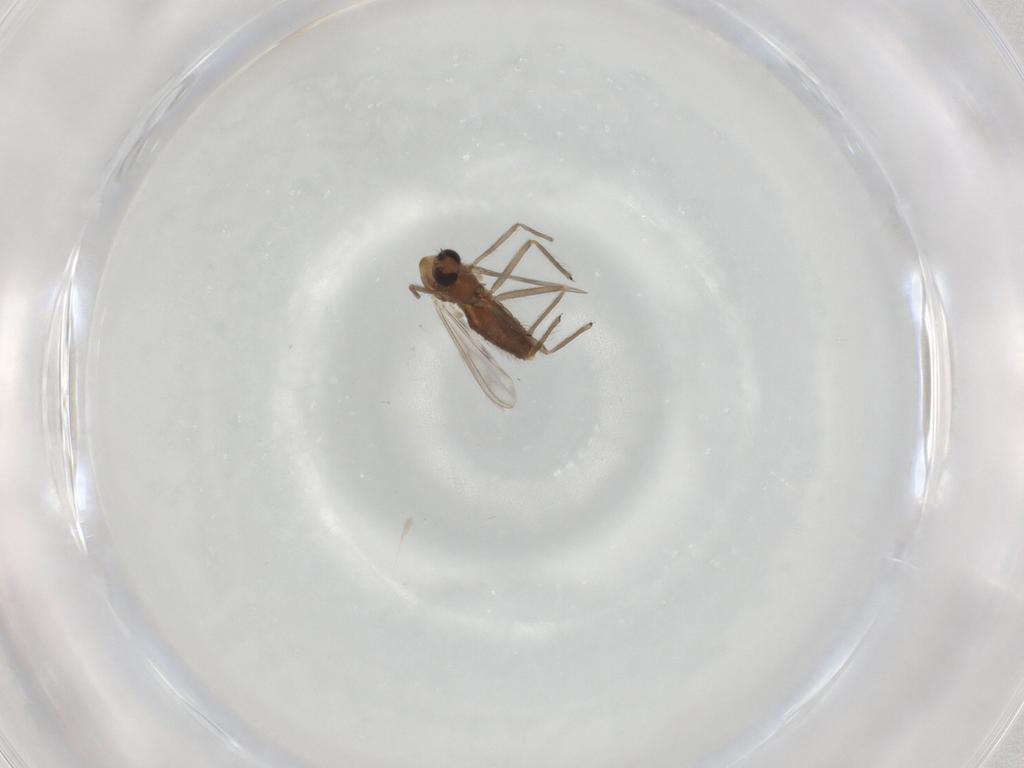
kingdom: Animalia
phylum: Arthropoda
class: Insecta
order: Diptera
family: Chironomidae
